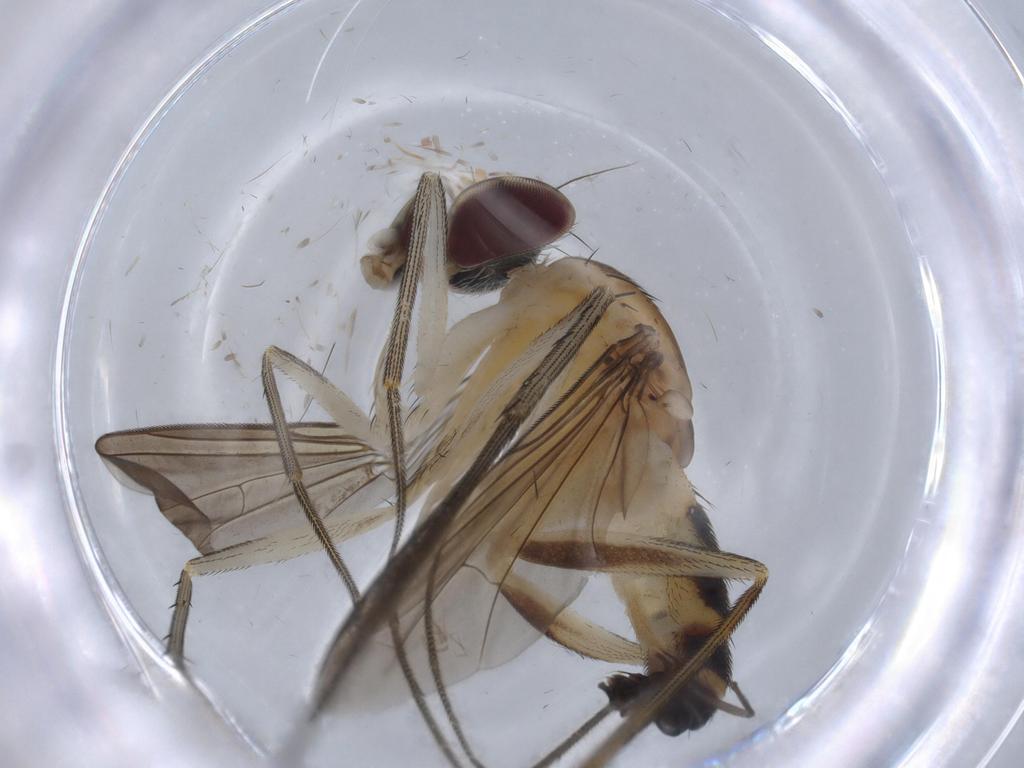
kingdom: Animalia
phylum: Arthropoda
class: Insecta
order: Diptera
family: Dolichopodidae
